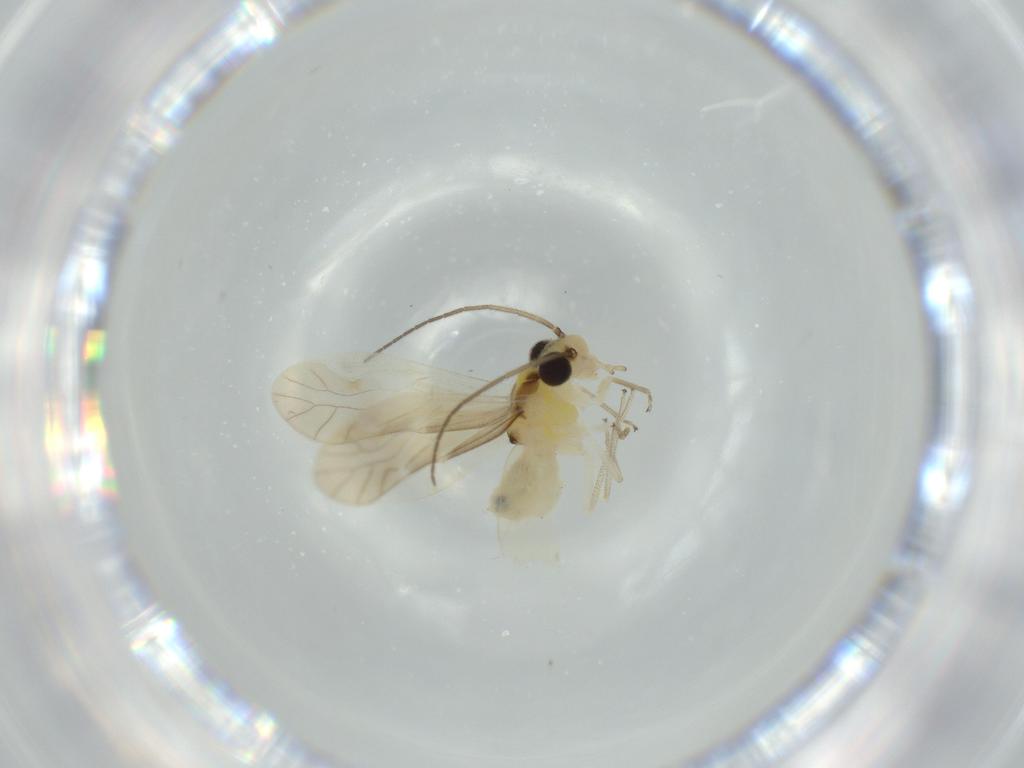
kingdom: Animalia
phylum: Arthropoda
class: Insecta
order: Psocodea
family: Caeciliusidae
